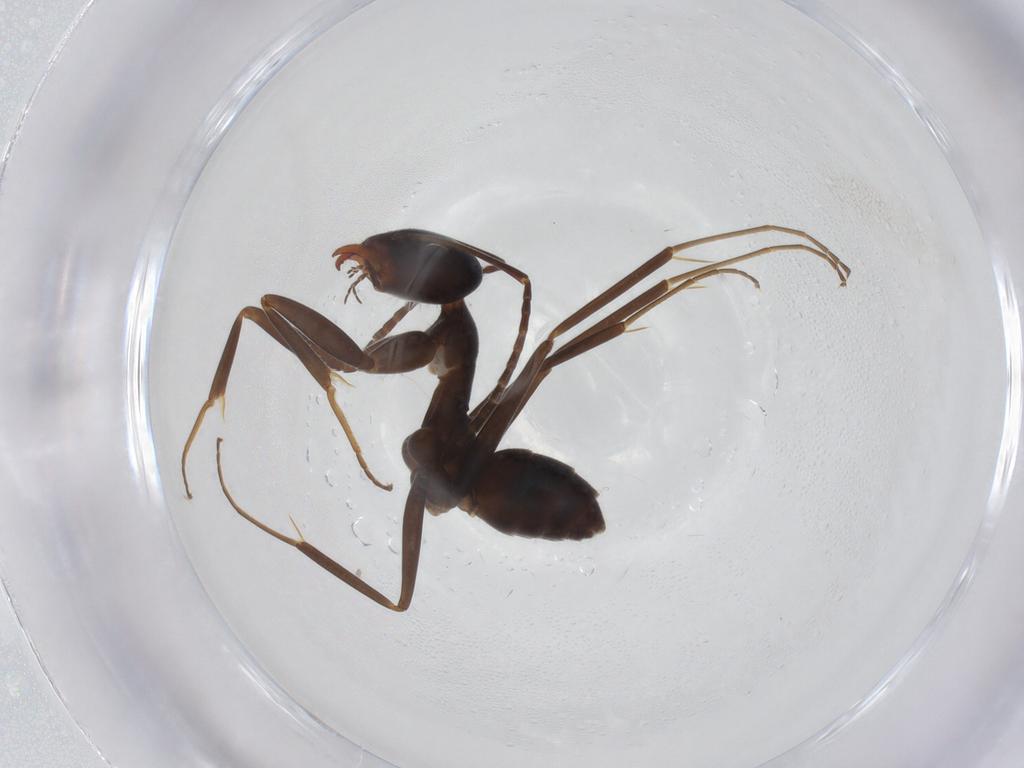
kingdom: Animalia
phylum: Arthropoda
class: Insecta
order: Hymenoptera
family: Formicidae
